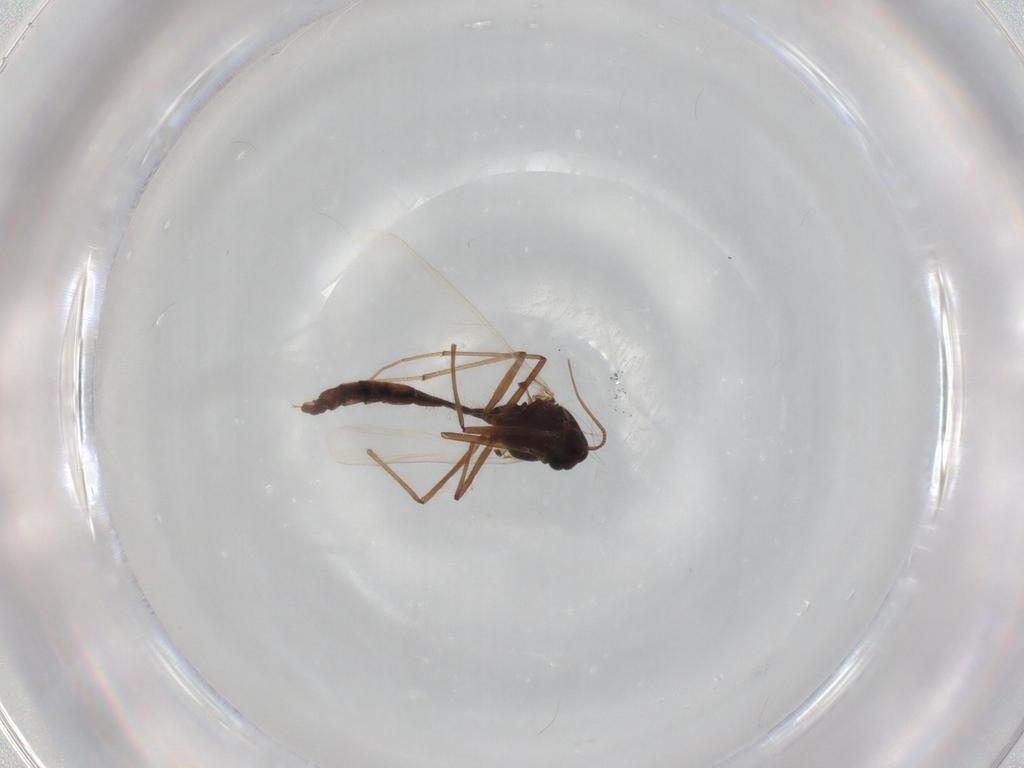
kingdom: Animalia
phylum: Arthropoda
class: Insecta
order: Diptera
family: Chironomidae
